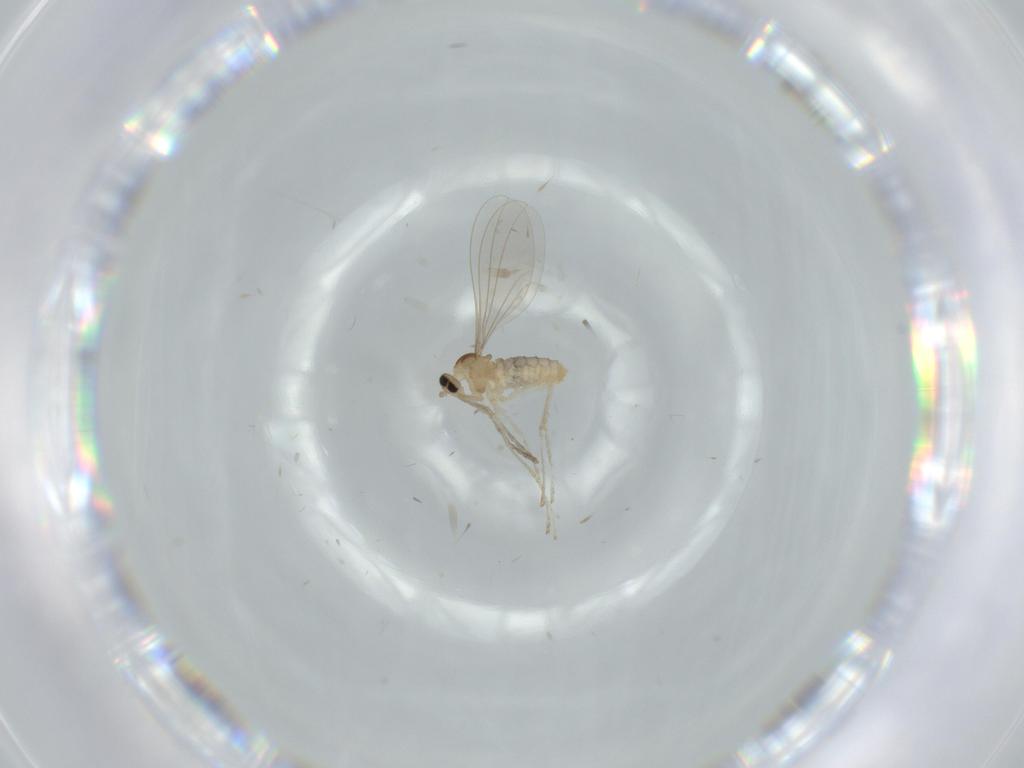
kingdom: Animalia
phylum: Arthropoda
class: Insecta
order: Diptera
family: Cecidomyiidae
